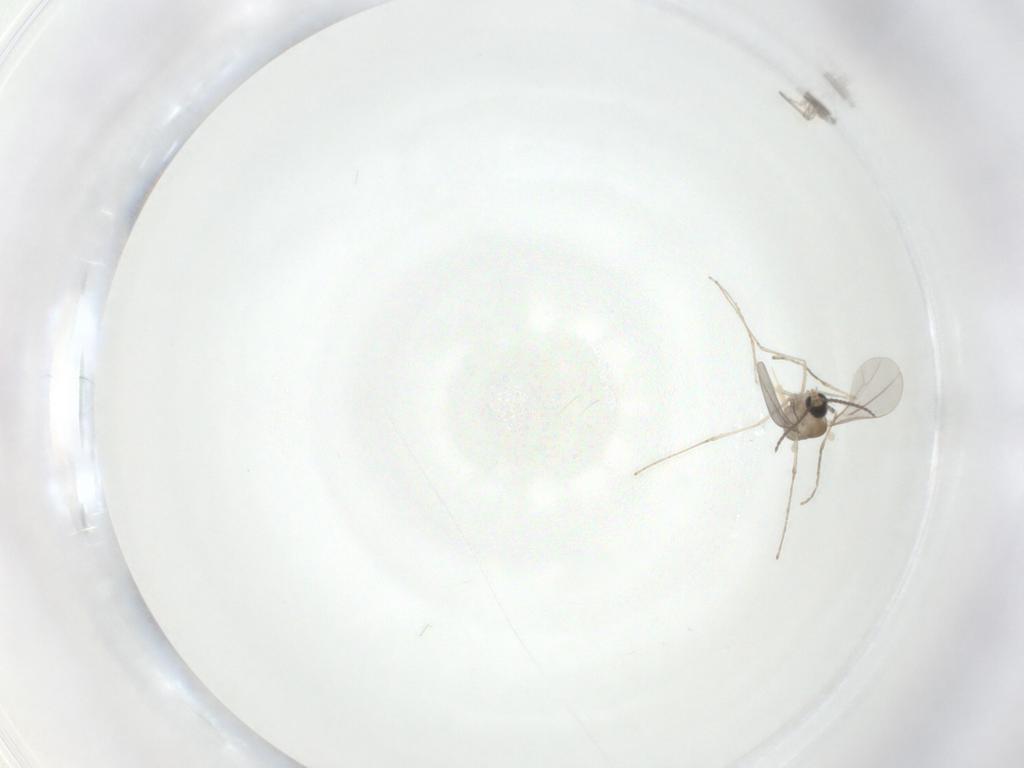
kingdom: Animalia
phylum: Arthropoda
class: Insecta
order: Diptera
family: Cecidomyiidae
